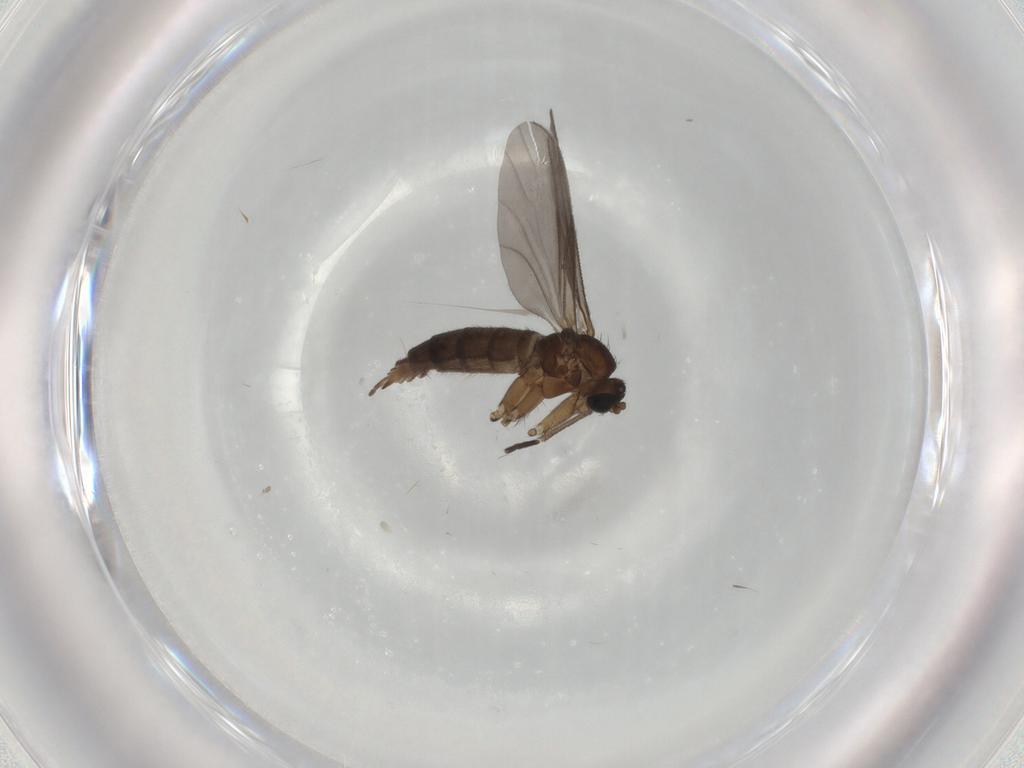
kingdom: Animalia
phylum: Arthropoda
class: Insecta
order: Diptera
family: Sciaridae
